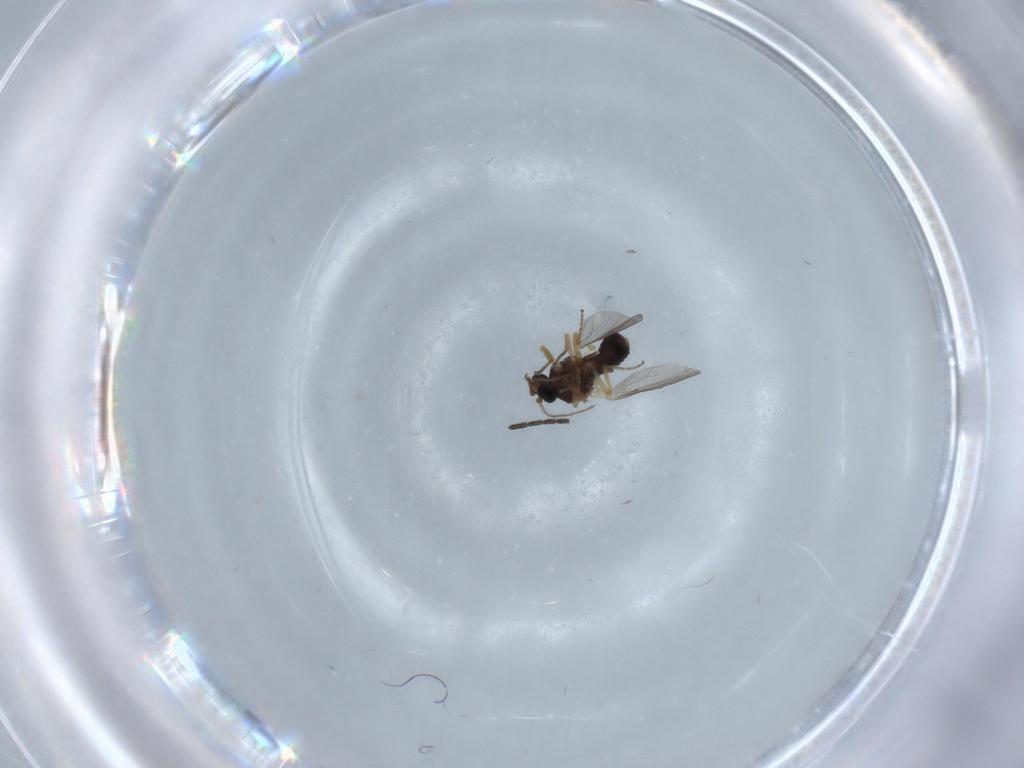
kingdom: Animalia
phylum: Arthropoda
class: Insecta
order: Diptera
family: Ceratopogonidae
